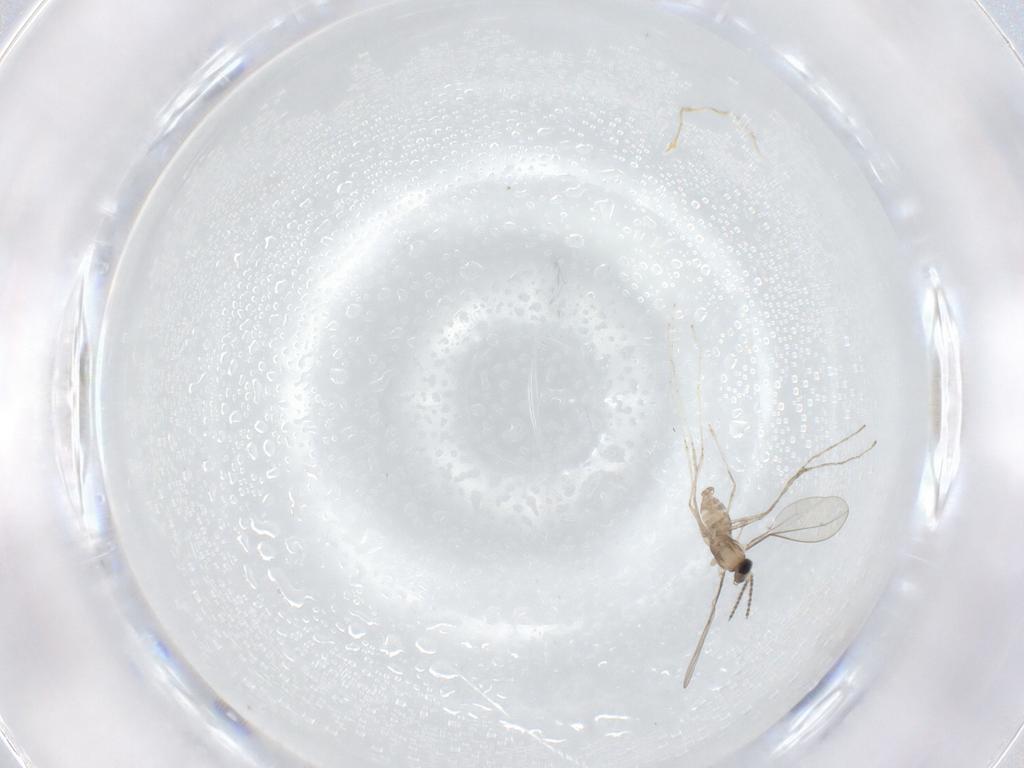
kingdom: Animalia
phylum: Arthropoda
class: Insecta
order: Diptera
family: Cecidomyiidae
